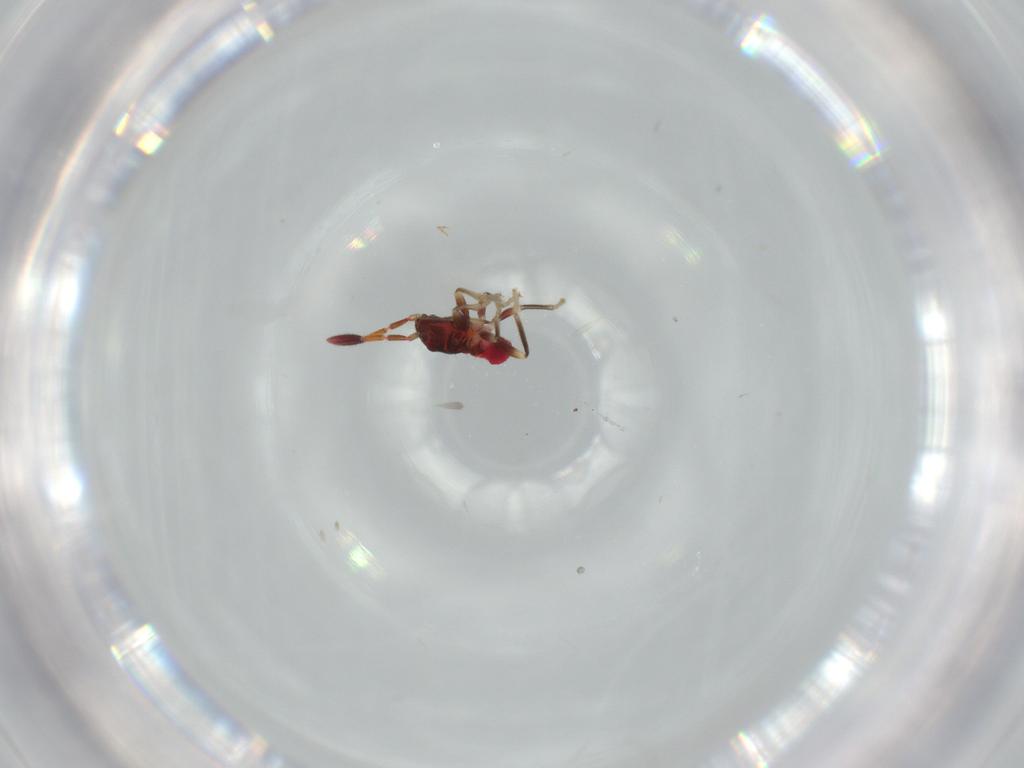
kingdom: Animalia
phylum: Arthropoda
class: Insecta
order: Hemiptera
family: Rhyparochromidae
